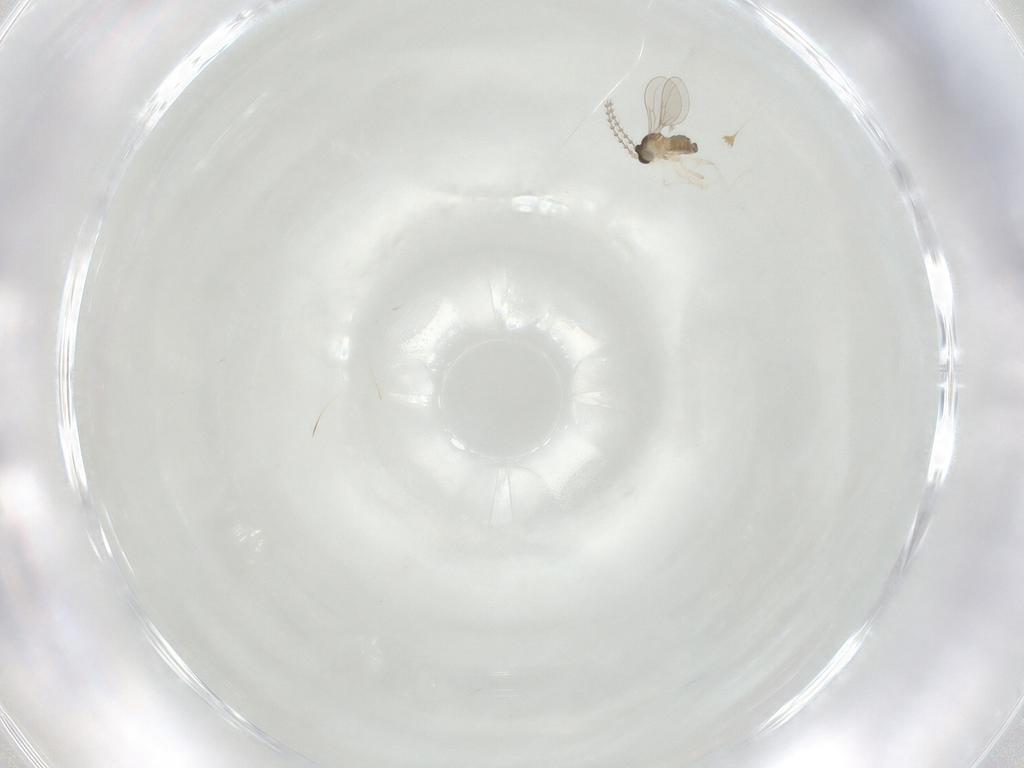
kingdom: Animalia
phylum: Arthropoda
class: Insecta
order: Diptera
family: Cecidomyiidae
